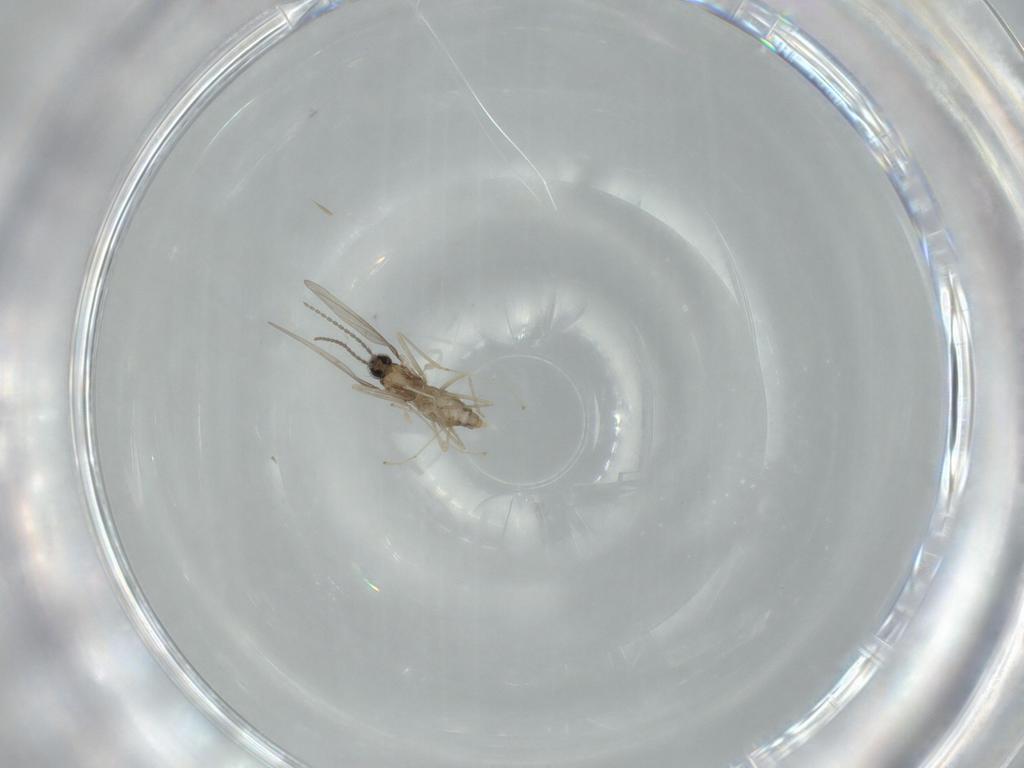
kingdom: Animalia
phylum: Arthropoda
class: Insecta
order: Diptera
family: Cecidomyiidae
